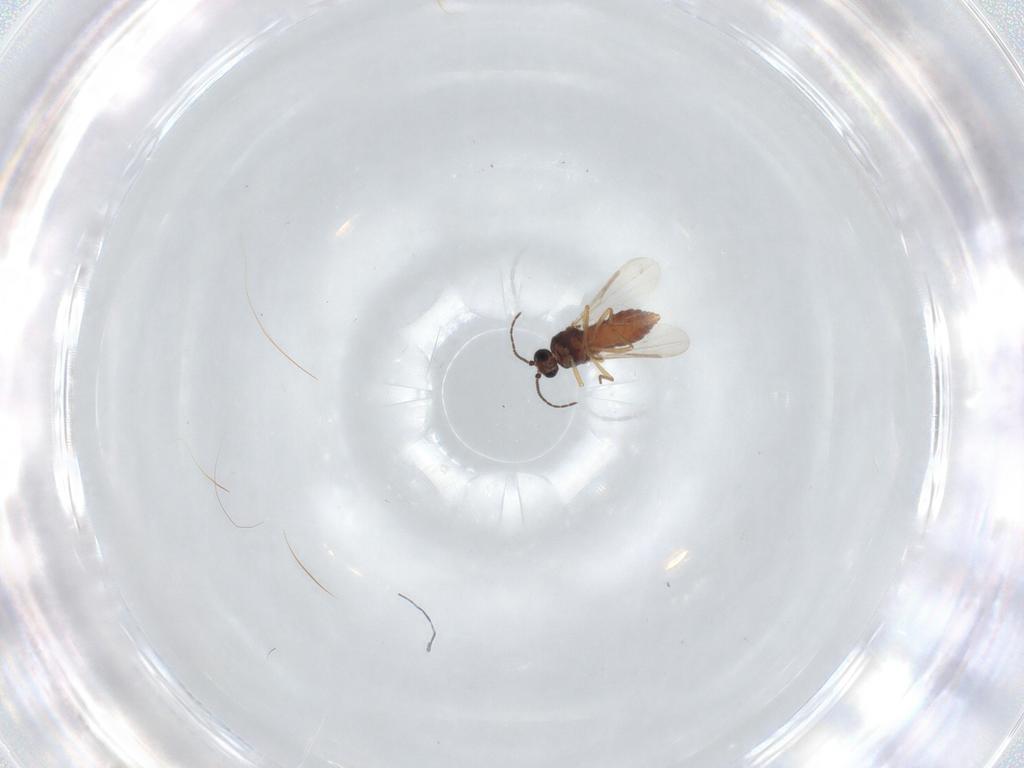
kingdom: Animalia
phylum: Arthropoda
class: Insecta
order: Diptera
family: Ceratopogonidae
